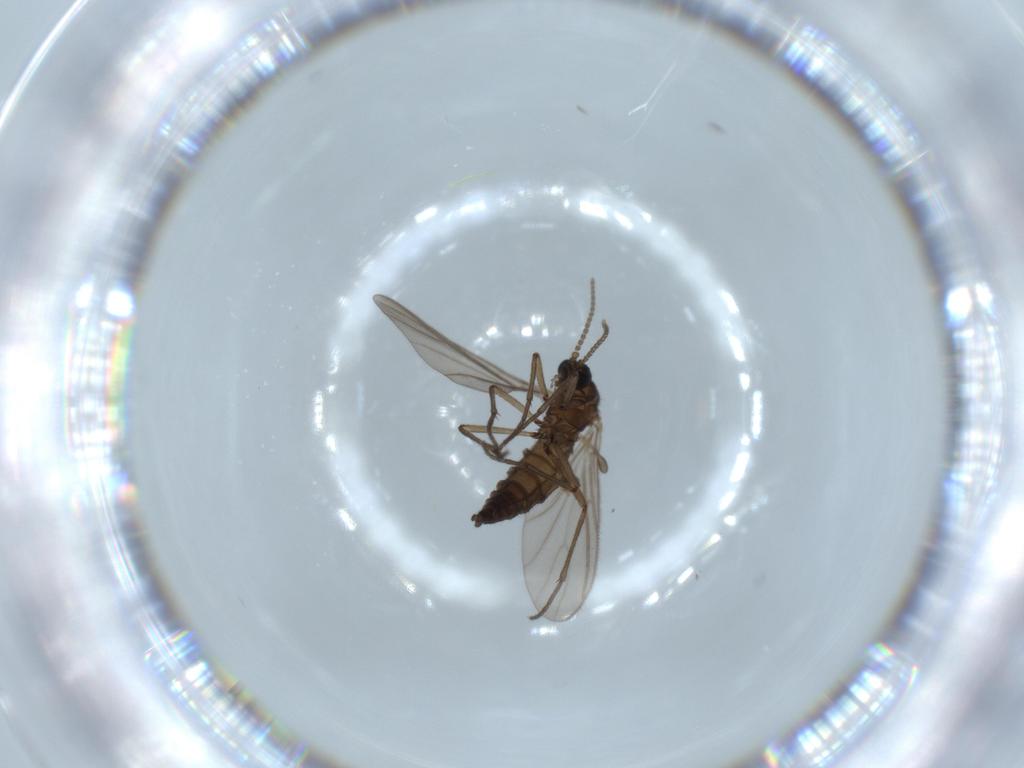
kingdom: Animalia
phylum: Arthropoda
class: Insecta
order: Diptera
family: Sciaridae
